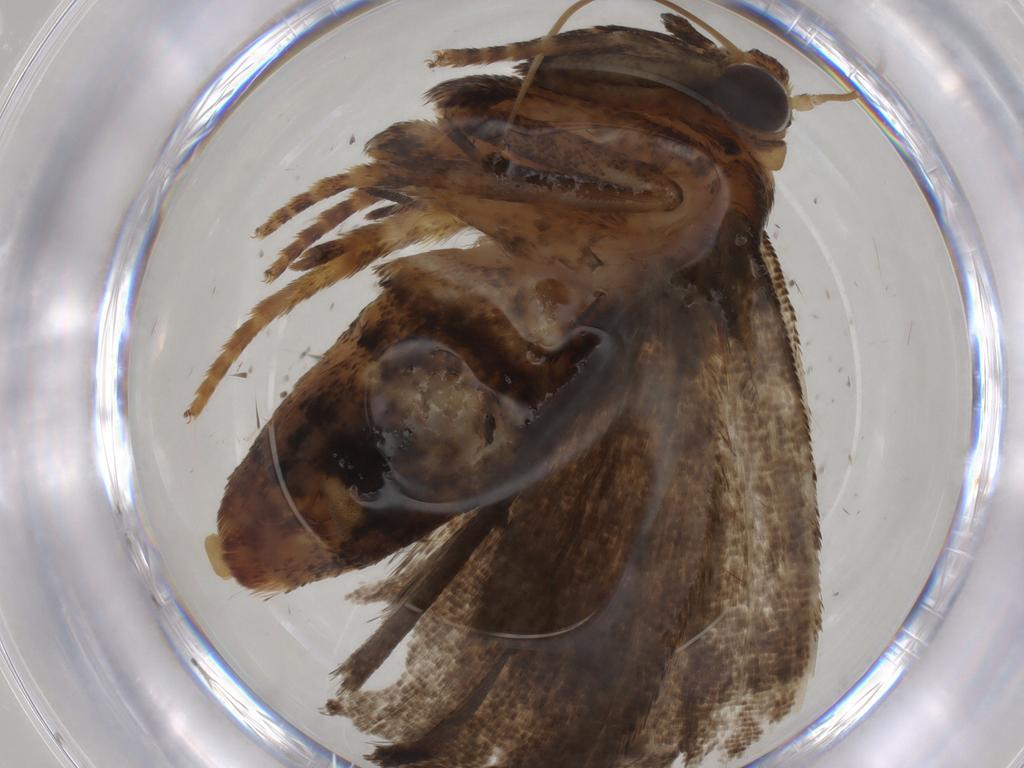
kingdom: Animalia
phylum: Arthropoda
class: Insecta
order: Lepidoptera
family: Erebidae
